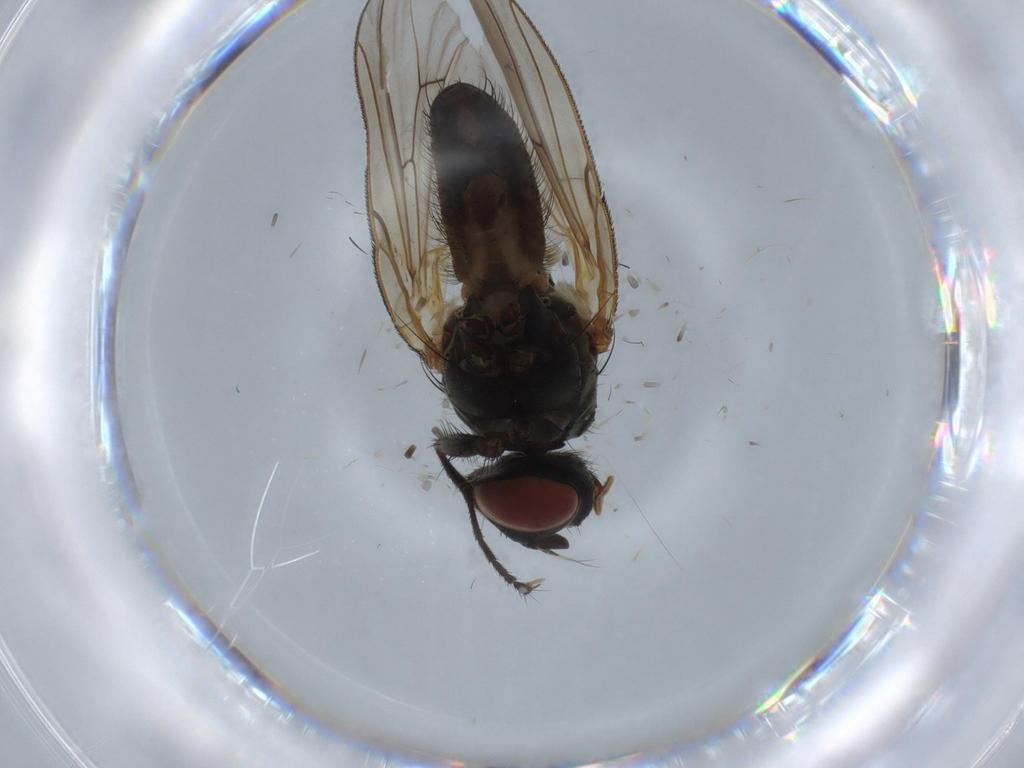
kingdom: Animalia
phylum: Arthropoda
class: Insecta
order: Diptera
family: Anthomyiidae
